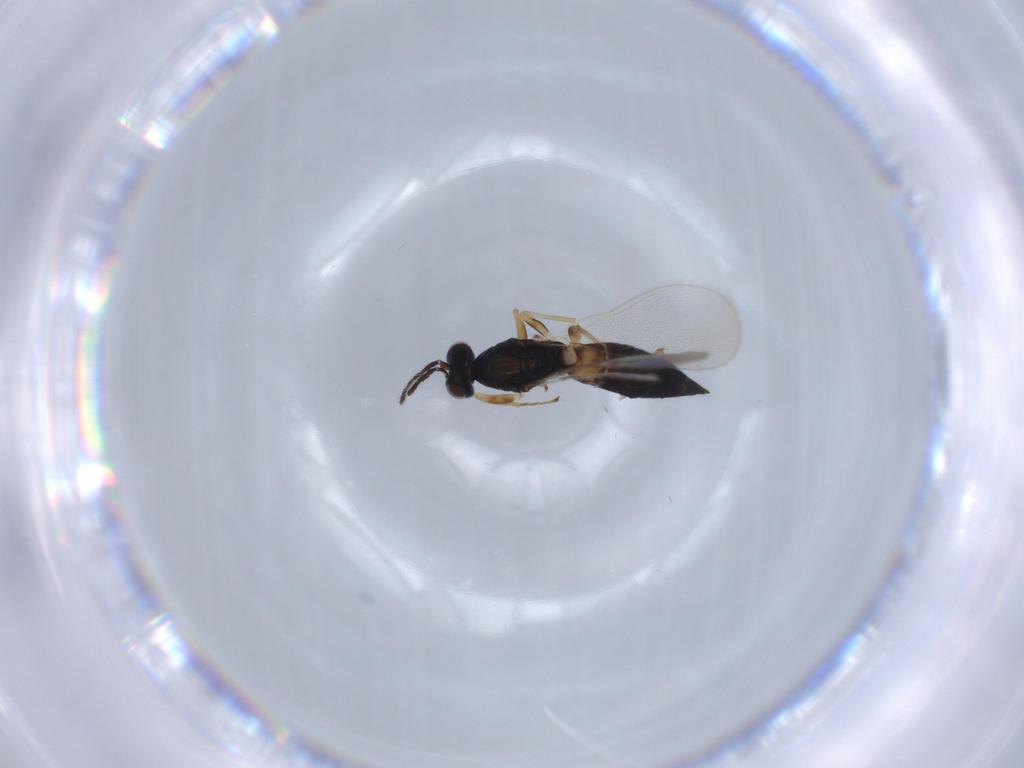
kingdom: Animalia
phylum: Arthropoda
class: Insecta
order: Hymenoptera
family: Eulophidae
